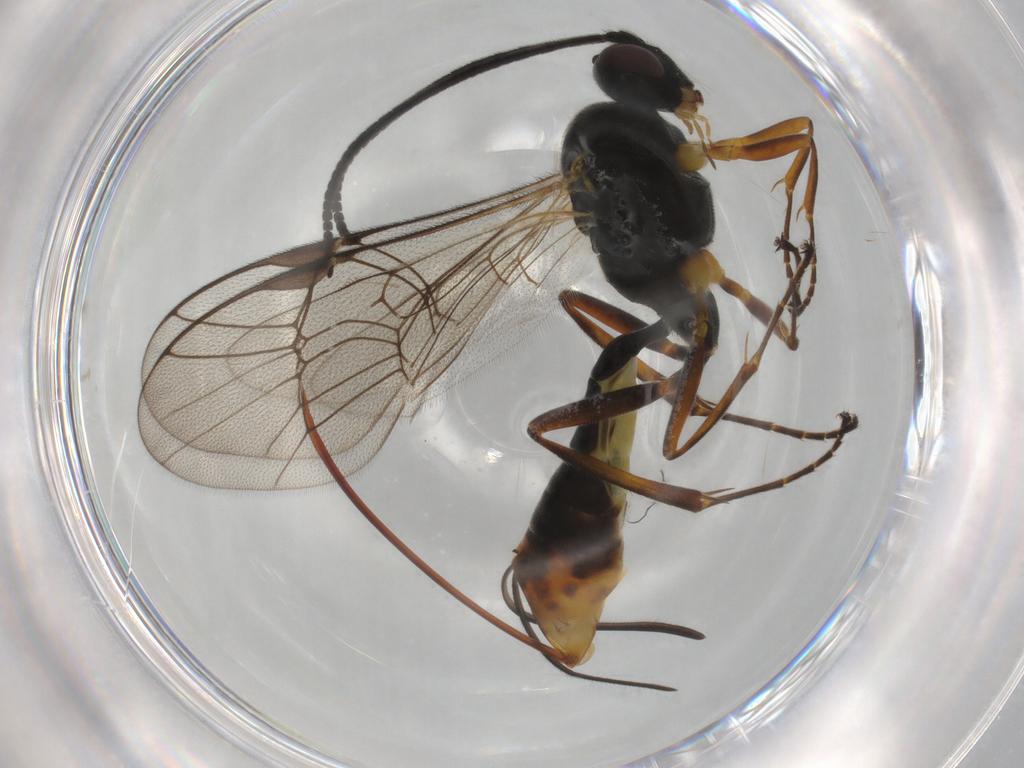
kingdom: Animalia
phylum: Arthropoda
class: Insecta
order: Hymenoptera
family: Ichneumonidae
